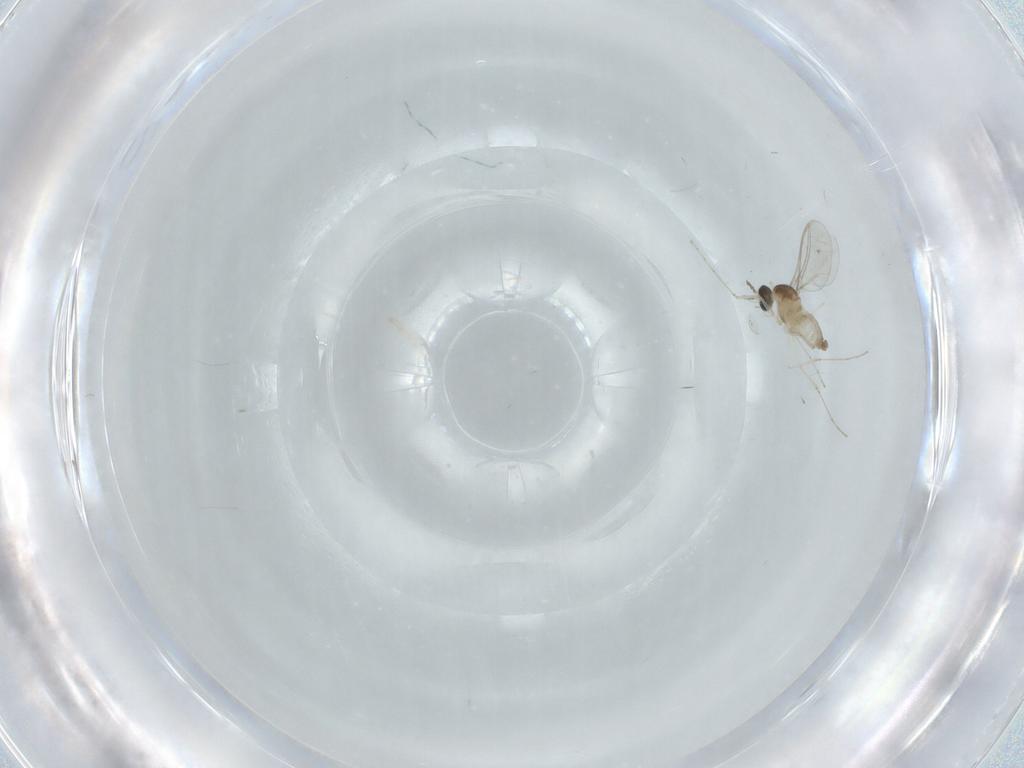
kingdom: Animalia
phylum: Arthropoda
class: Insecta
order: Diptera
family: Cecidomyiidae
